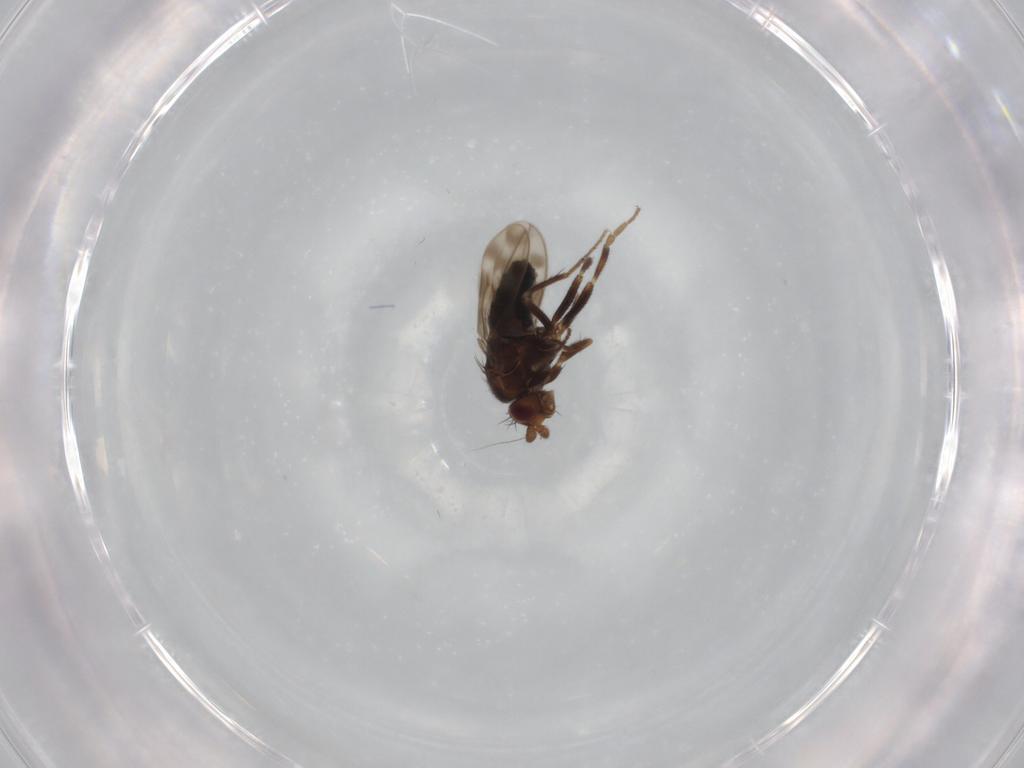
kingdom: Animalia
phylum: Arthropoda
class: Insecta
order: Diptera
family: Sphaeroceridae
